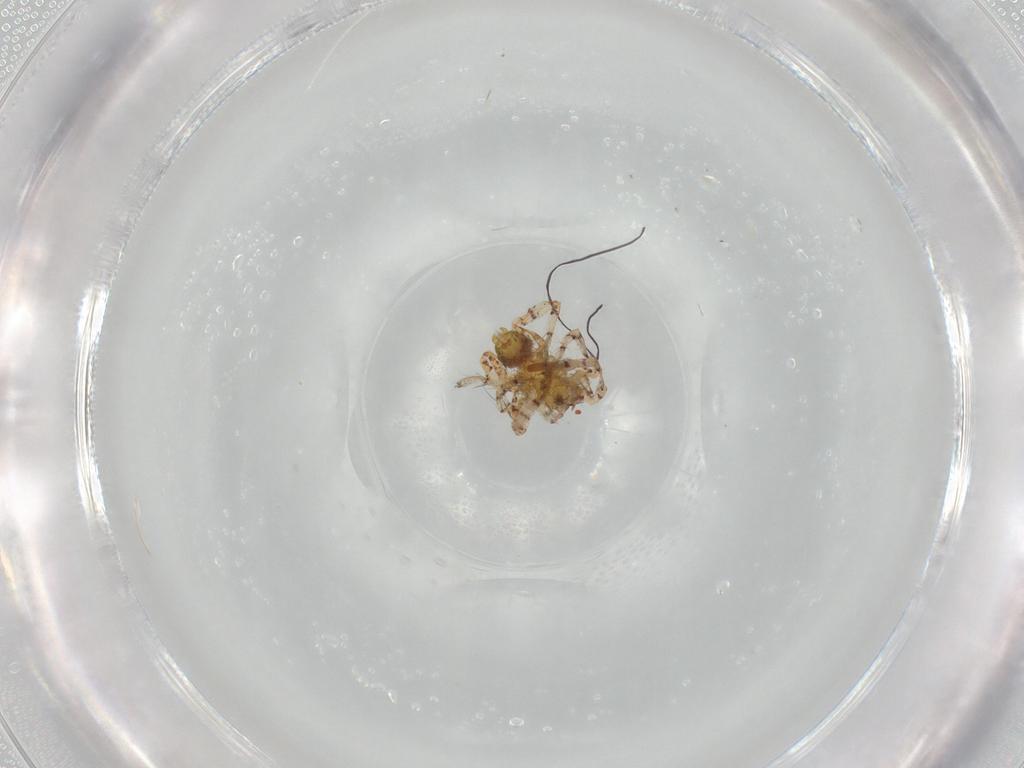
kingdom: Animalia
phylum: Arthropoda
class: Arachnida
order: Araneae
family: Anyphaenidae
